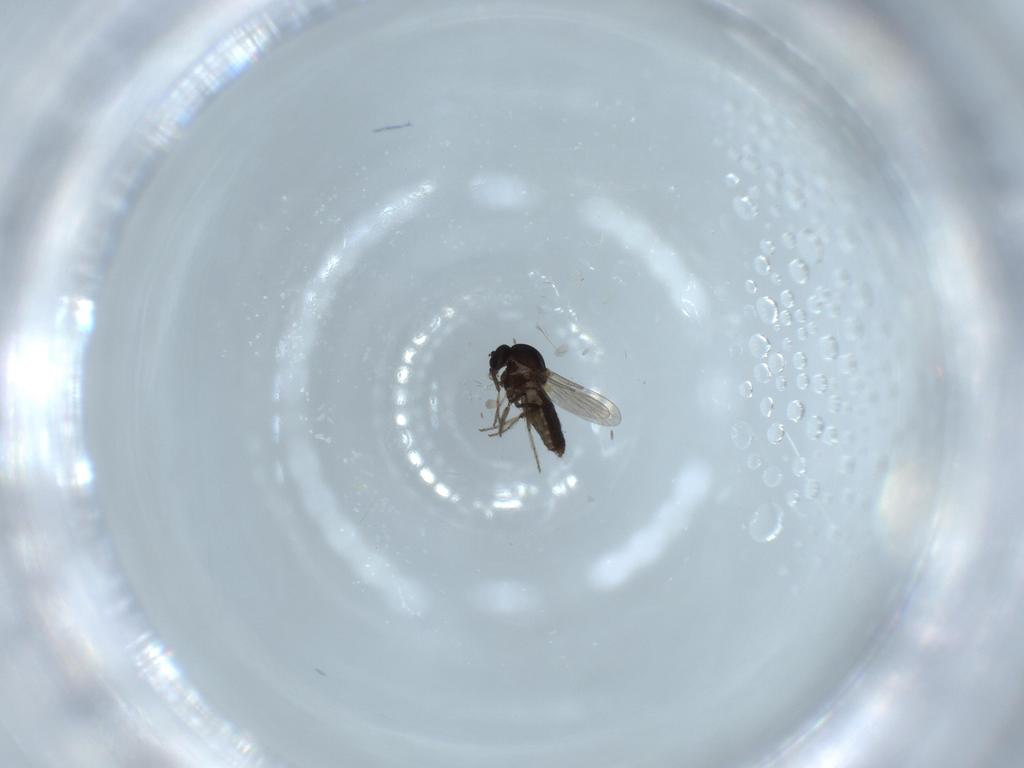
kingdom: Animalia
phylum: Arthropoda
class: Insecta
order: Diptera
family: Ceratopogonidae
